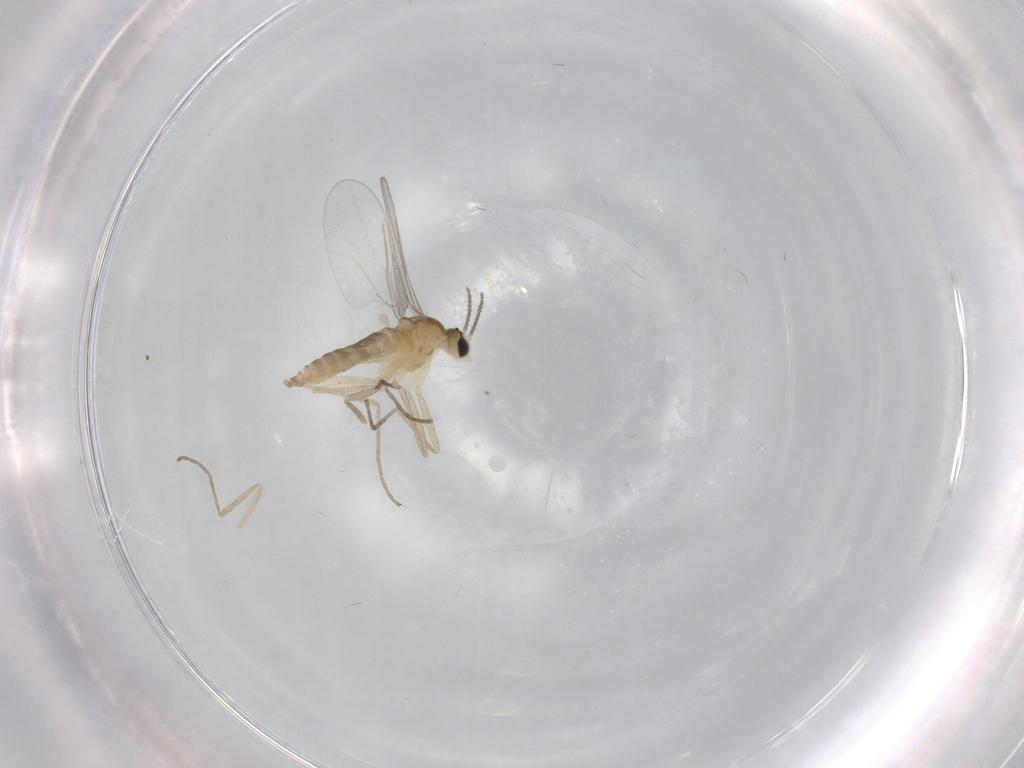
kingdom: Animalia
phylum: Arthropoda
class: Insecta
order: Diptera
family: Cecidomyiidae
